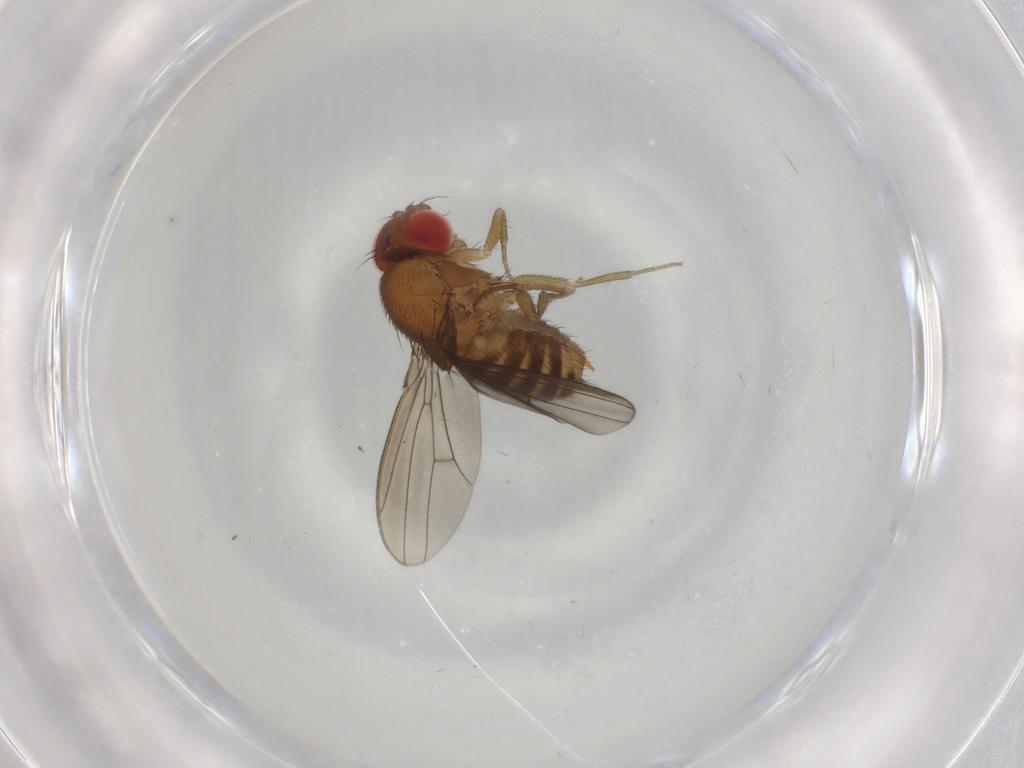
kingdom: Animalia
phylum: Arthropoda
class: Insecta
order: Diptera
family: Drosophilidae
